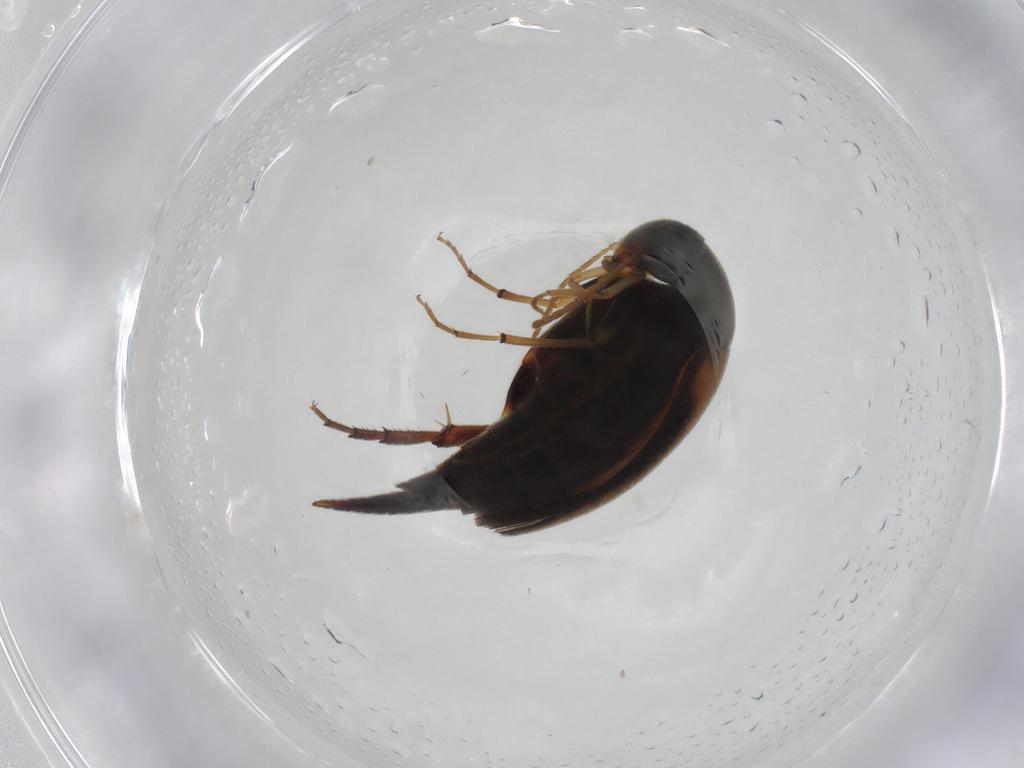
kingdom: Animalia
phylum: Arthropoda
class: Insecta
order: Coleoptera
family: Mordellidae
